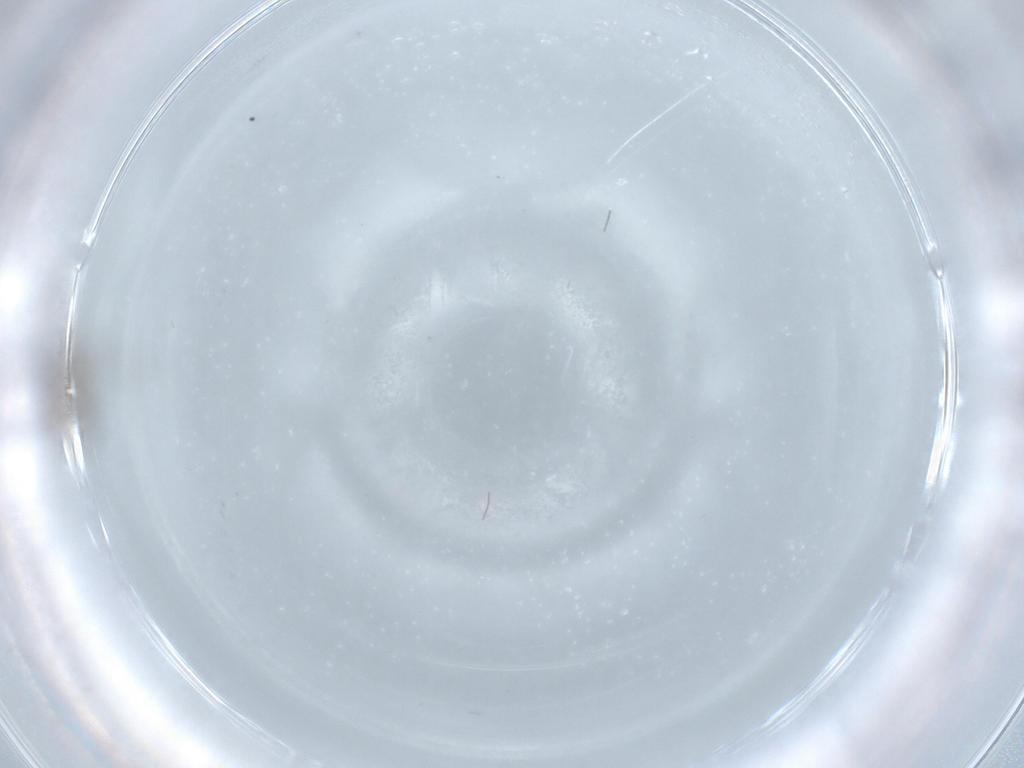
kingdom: Animalia
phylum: Arthropoda
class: Insecta
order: Diptera
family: Chironomidae
